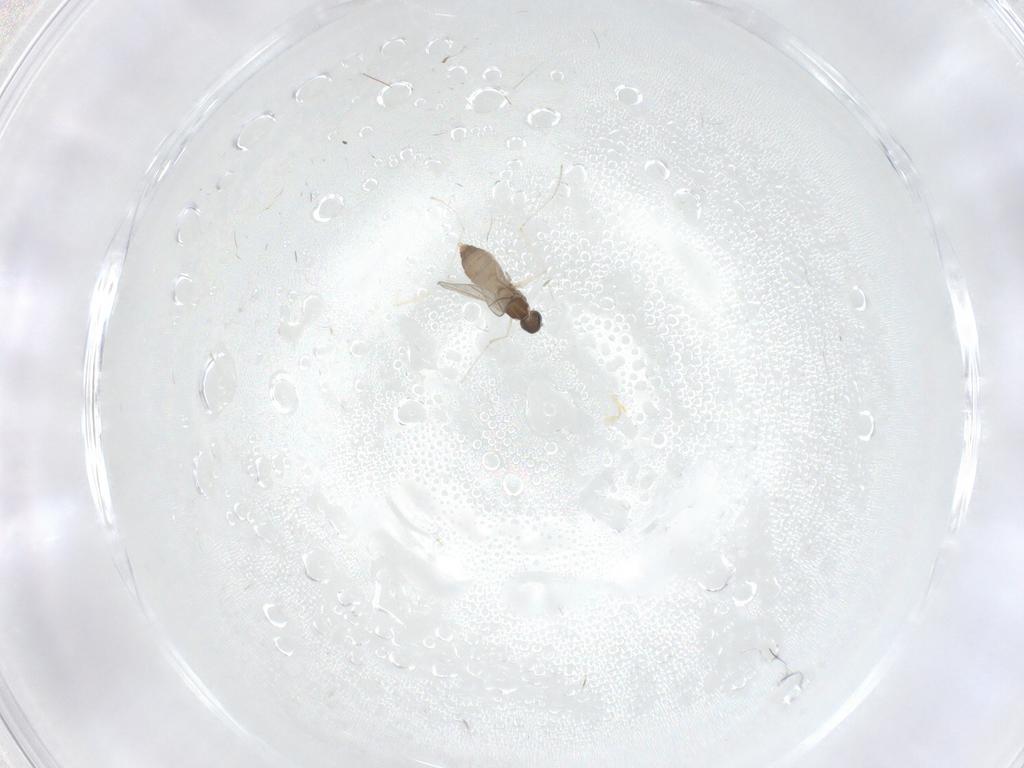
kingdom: Animalia
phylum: Arthropoda
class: Insecta
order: Diptera
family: Cecidomyiidae
